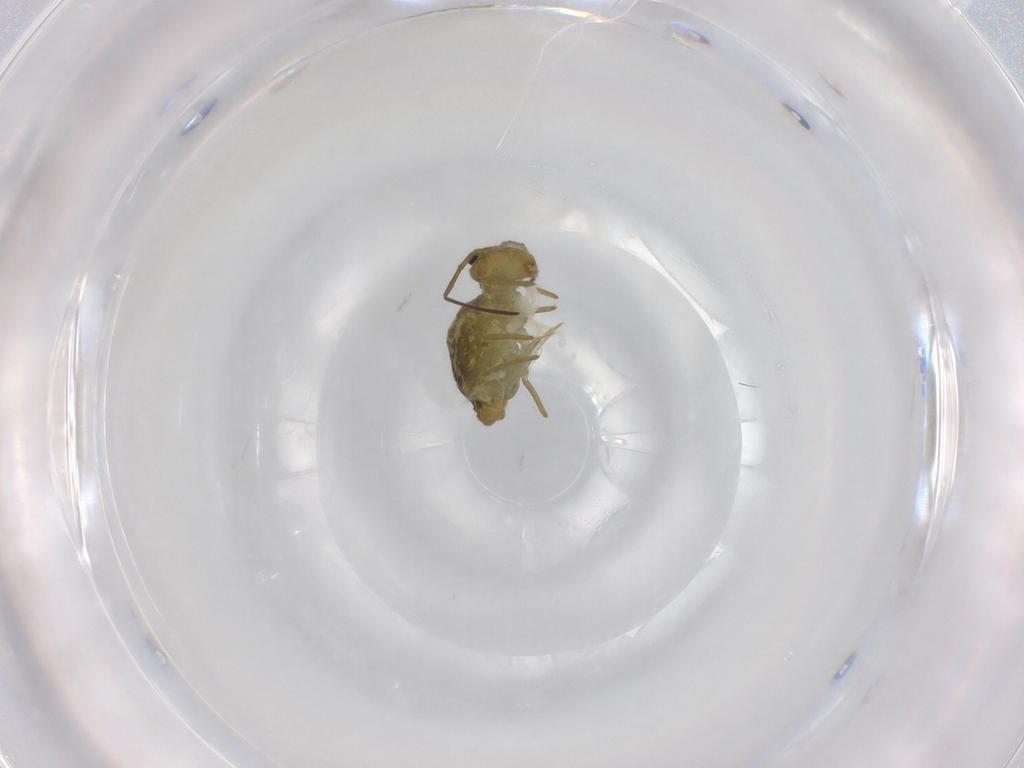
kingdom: Animalia
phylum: Arthropoda
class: Collembola
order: Symphypleona
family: Sminthuridae
